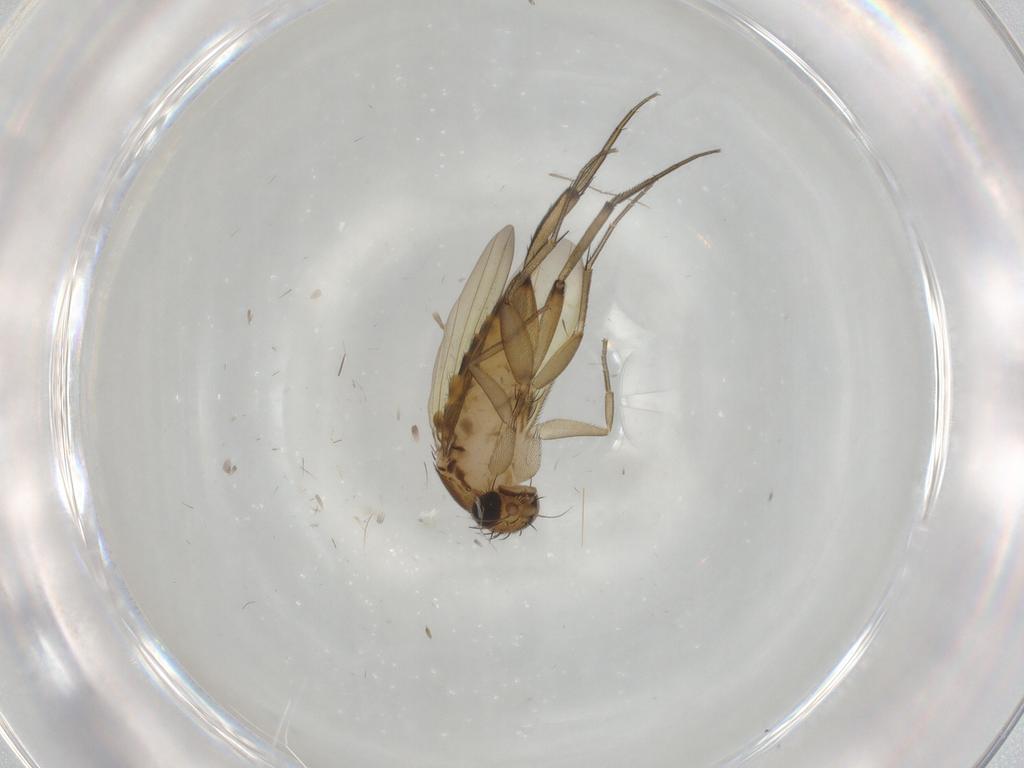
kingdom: Animalia
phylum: Arthropoda
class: Insecta
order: Diptera
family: Phoridae
